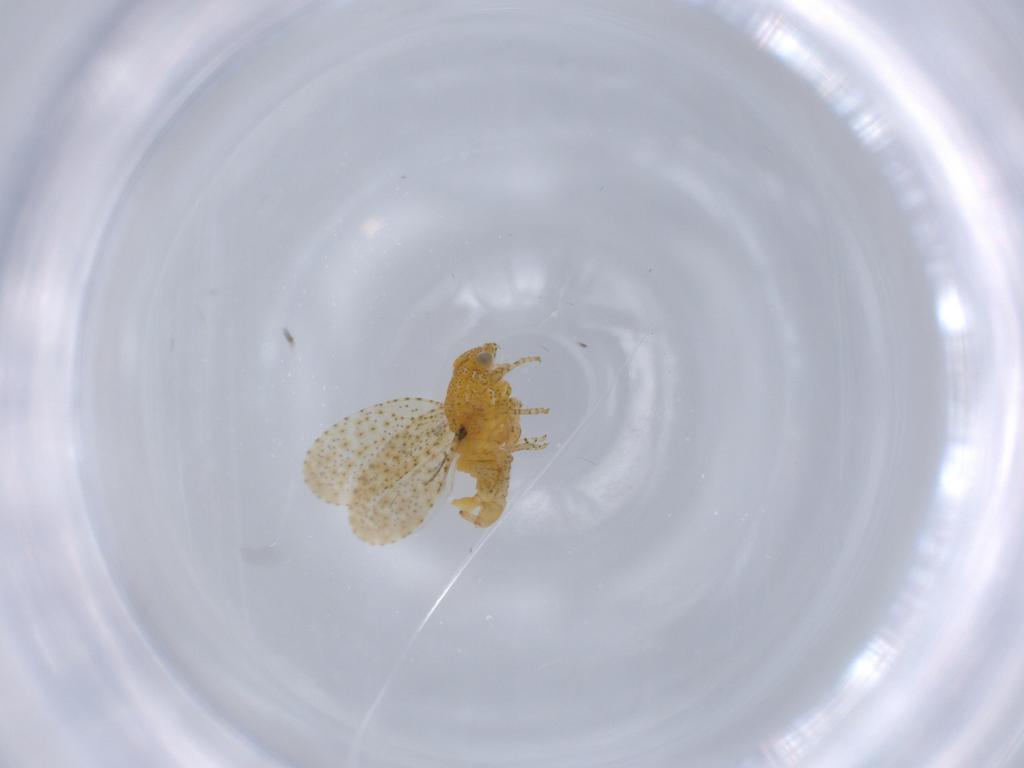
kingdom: Animalia
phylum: Arthropoda
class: Insecta
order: Hemiptera
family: Psyllidae
